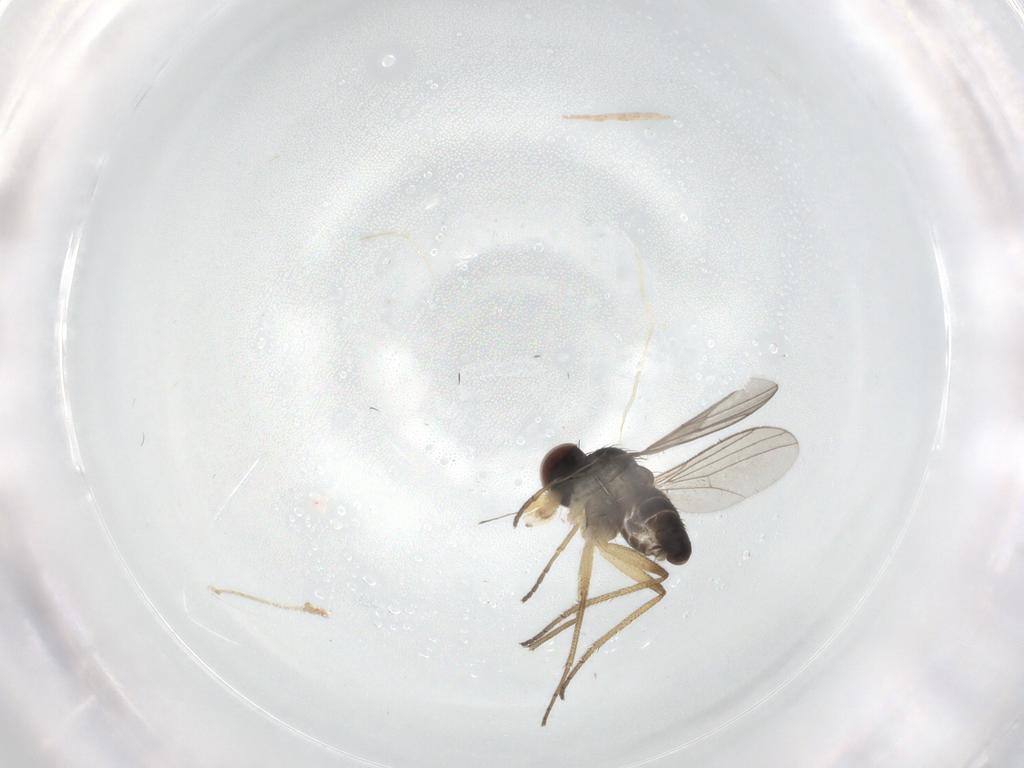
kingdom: Animalia
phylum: Arthropoda
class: Insecta
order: Diptera
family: Dolichopodidae
